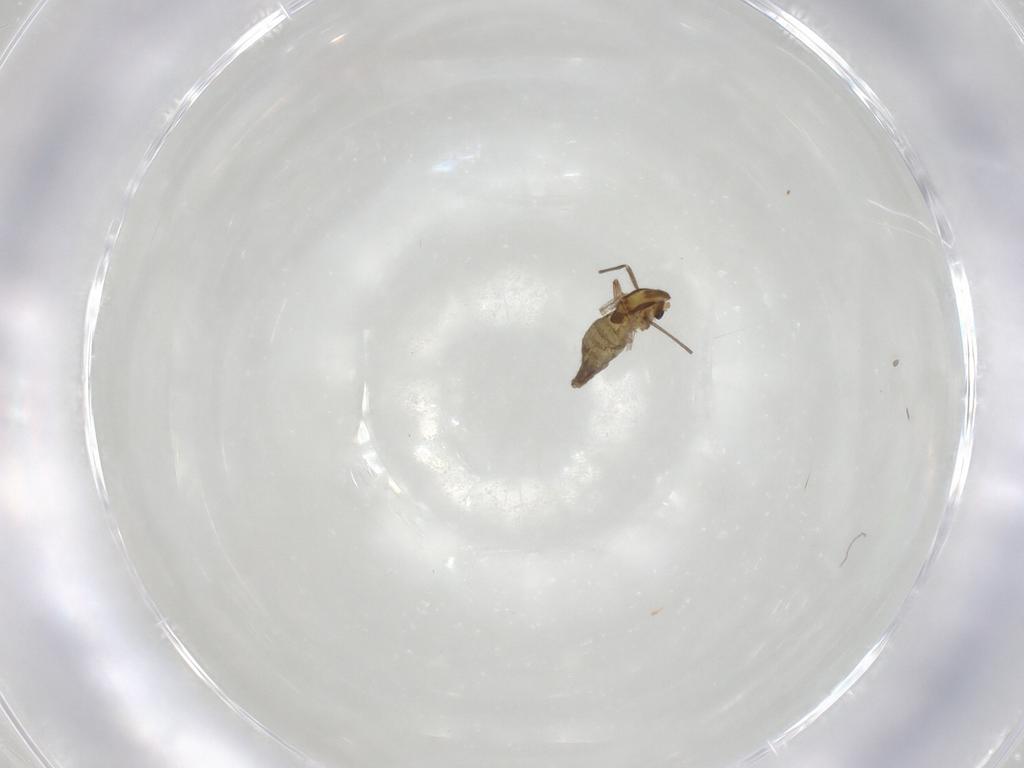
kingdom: Animalia
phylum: Arthropoda
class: Insecta
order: Diptera
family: Chironomidae
